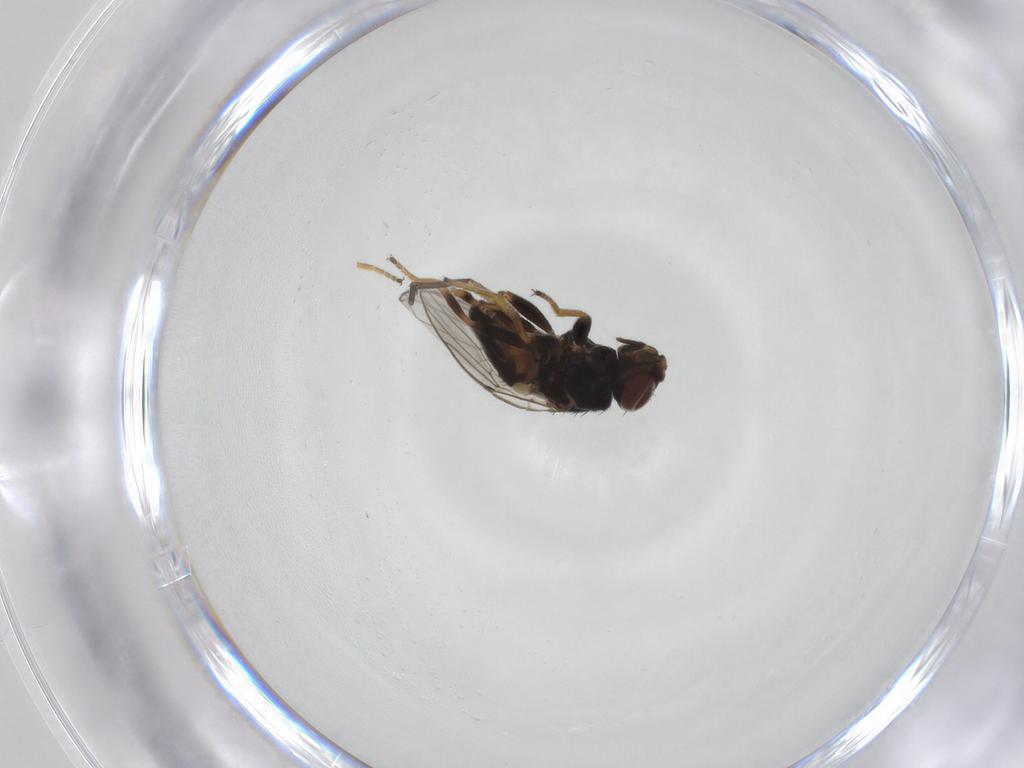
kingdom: Animalia
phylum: Arthropoda
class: Insecta
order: Diptera
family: Chloropidae
